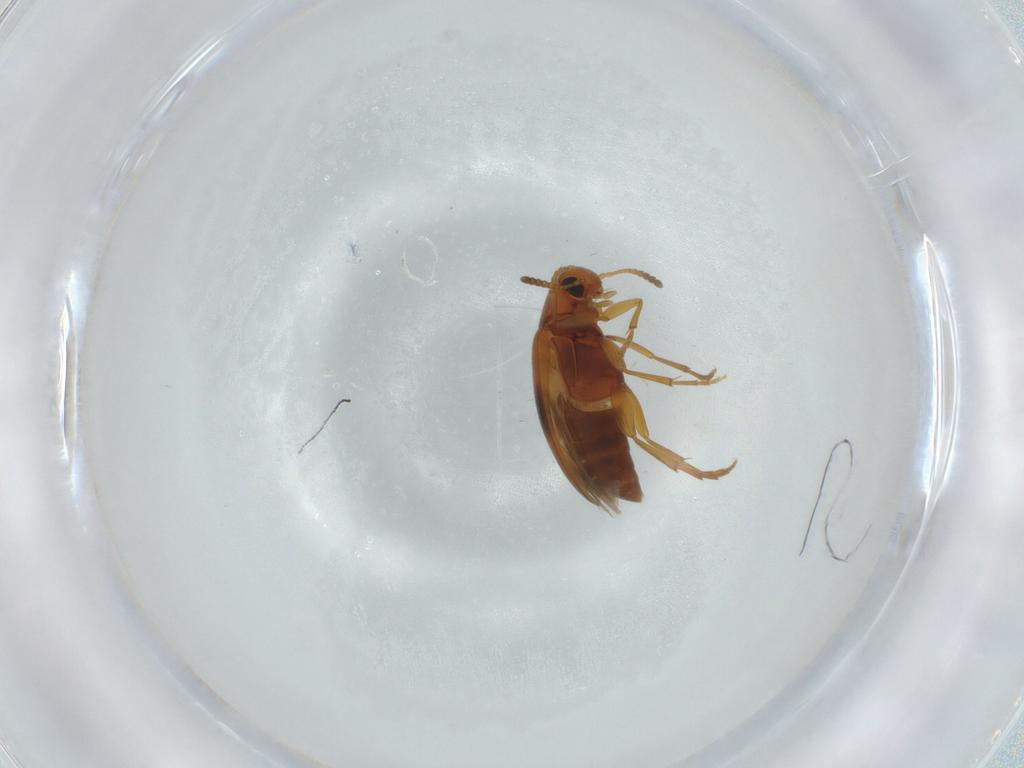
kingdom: Animalia
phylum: Arthropoda
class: Insecta
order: Coleoptera
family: Scraptiidae
